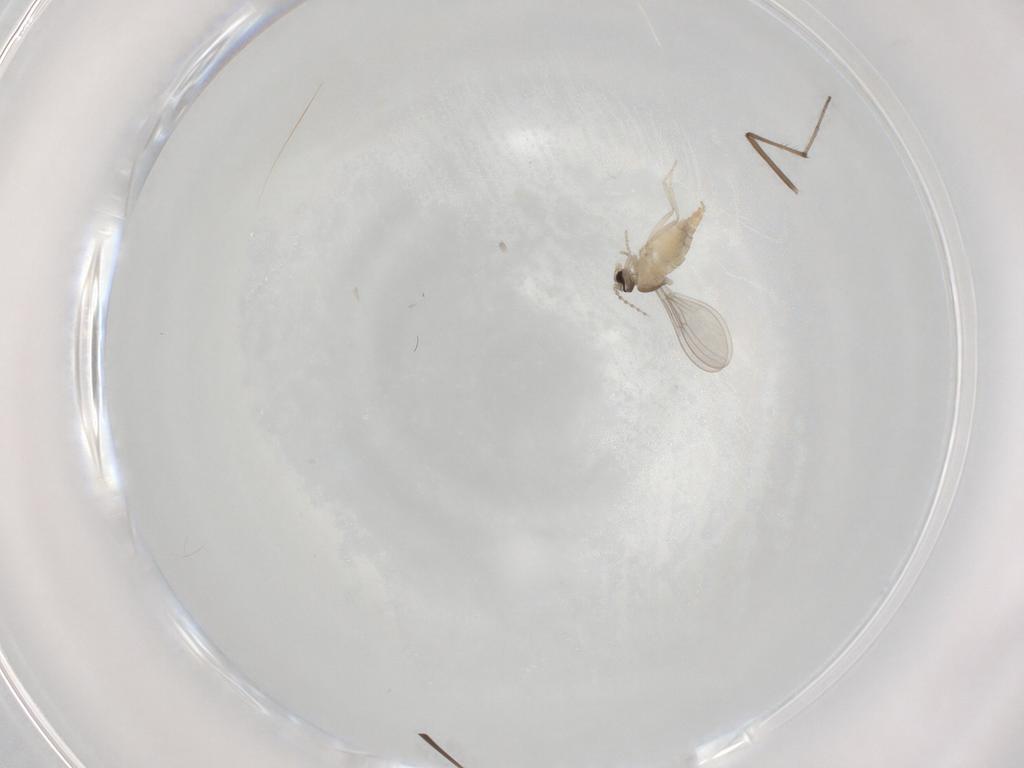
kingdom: Animalia
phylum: Arthropoda
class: Insecta
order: Diptera
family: Cecidomyiidae
